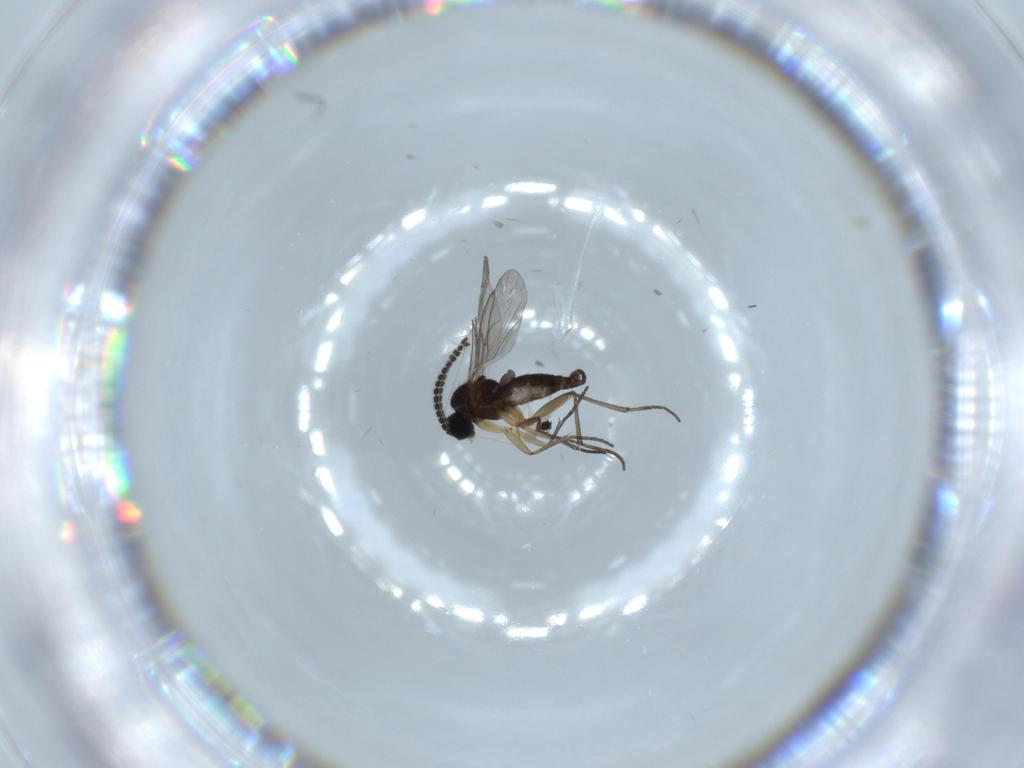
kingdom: Animalia
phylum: Arthropoda
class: Insecta
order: Diptera
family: Sciaridae
